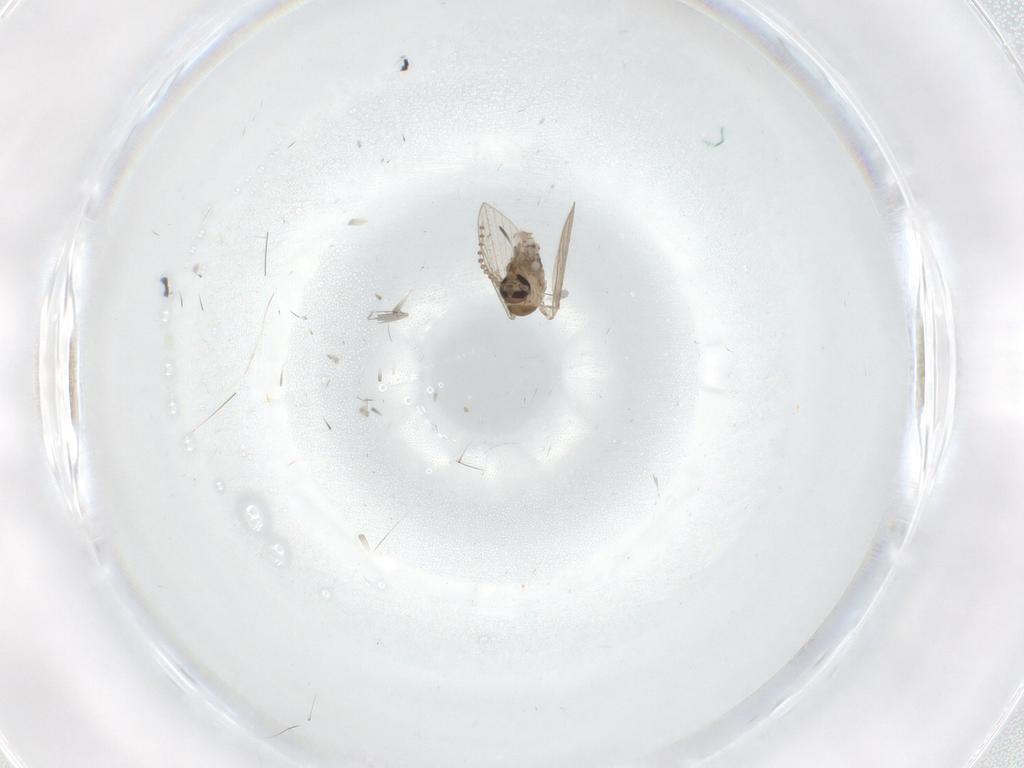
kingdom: Animalia
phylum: Arthropoda
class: Insecta
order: Diptera
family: Psychodidae
